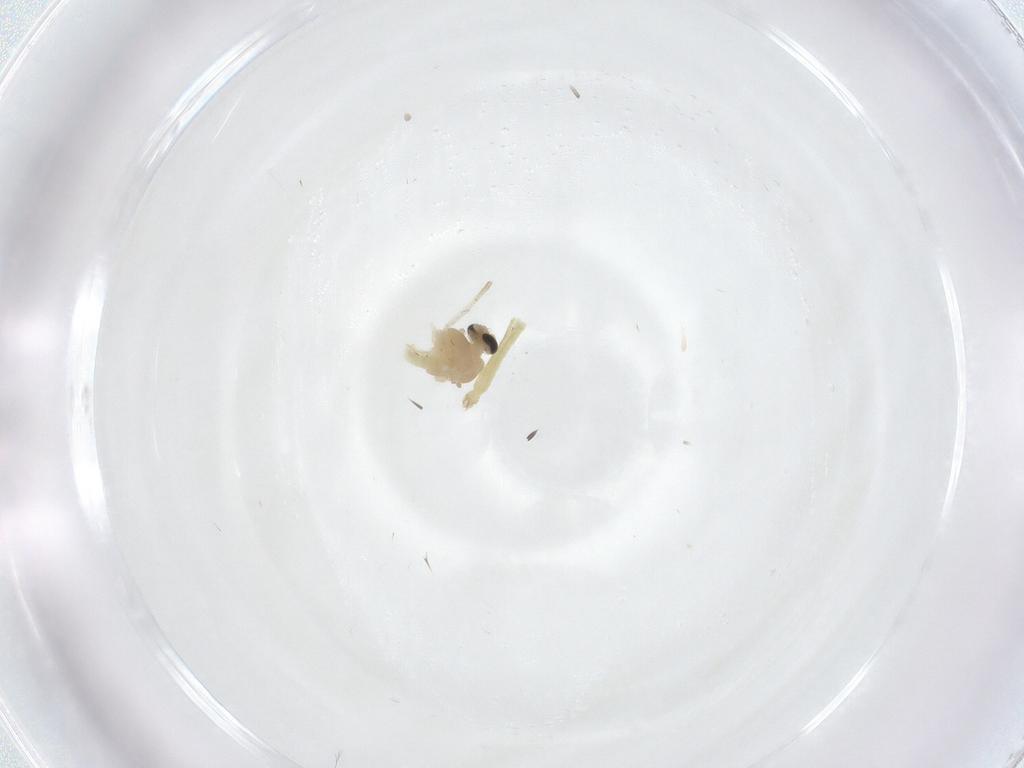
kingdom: Animalia
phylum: Arthropoda
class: Insecta
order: Diptera
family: Chironomidae
